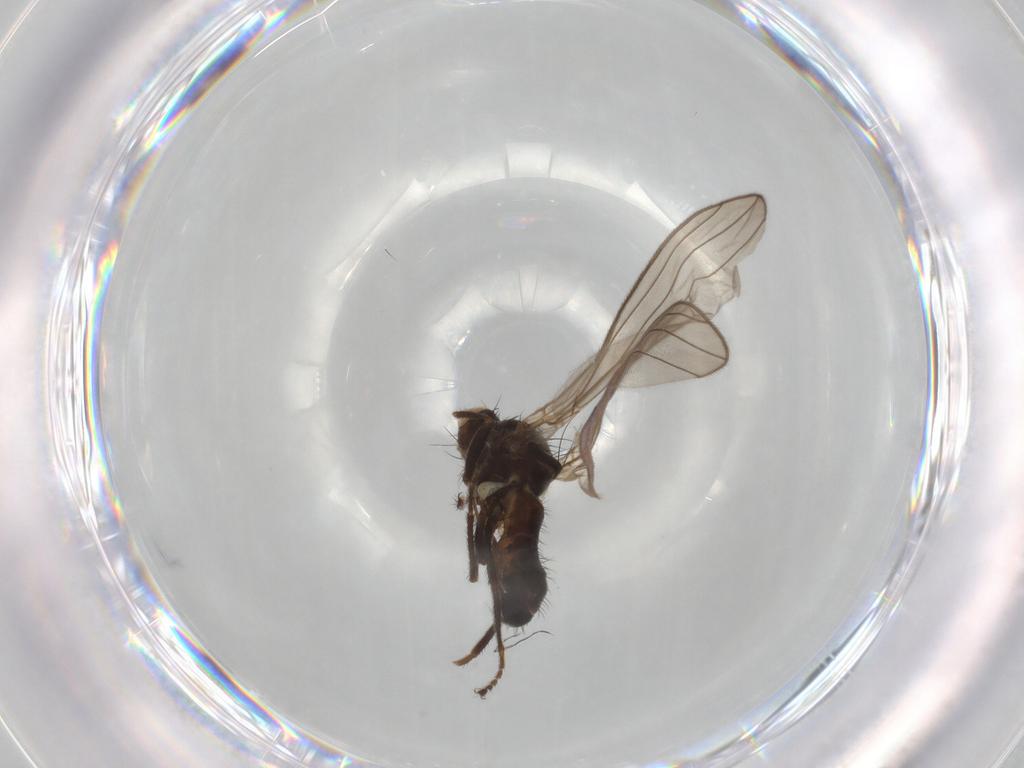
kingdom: Animalia
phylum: Arthropoda
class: Insecta
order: Diptera
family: Heleomyzidae
